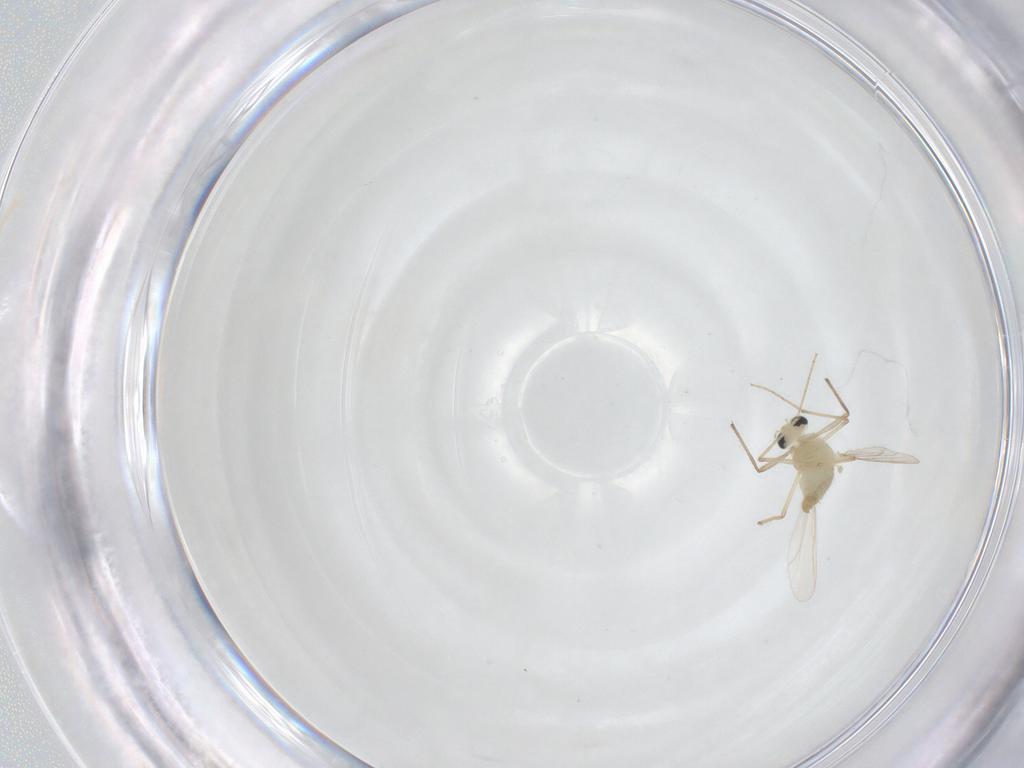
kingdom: Animalia
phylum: Arthropoda
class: Insecta
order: Diptera
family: Chironomidae
